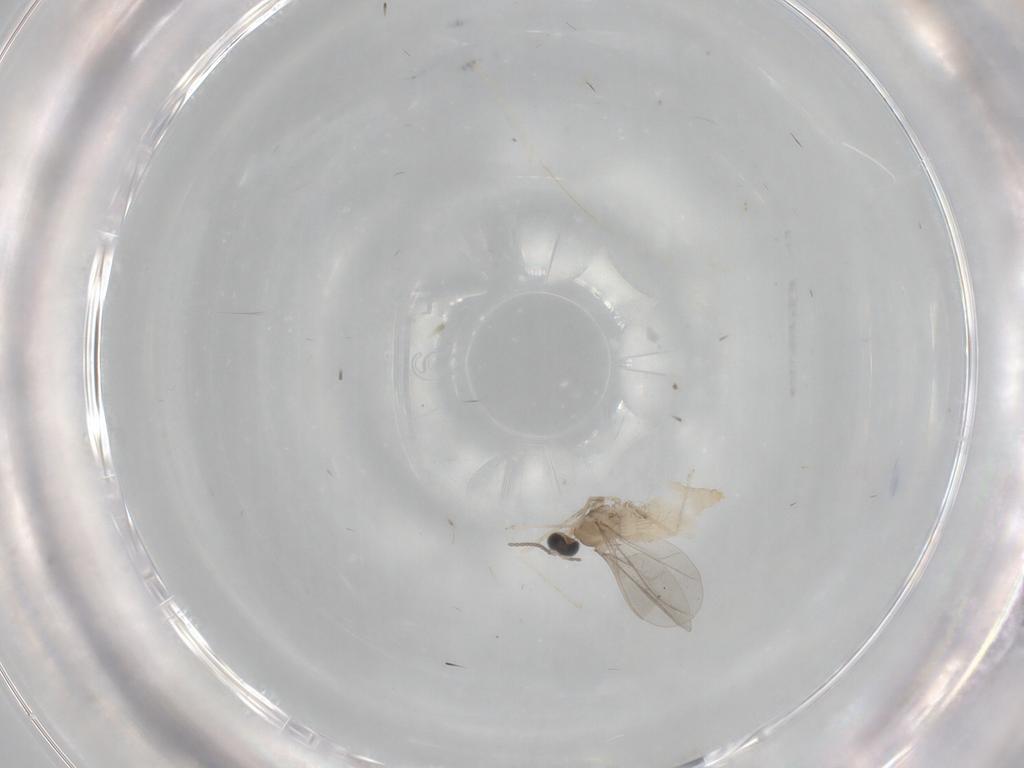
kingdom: Animalia
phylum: Arthropoda
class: Insecta
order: Diptera
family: Cecidomyiidae
